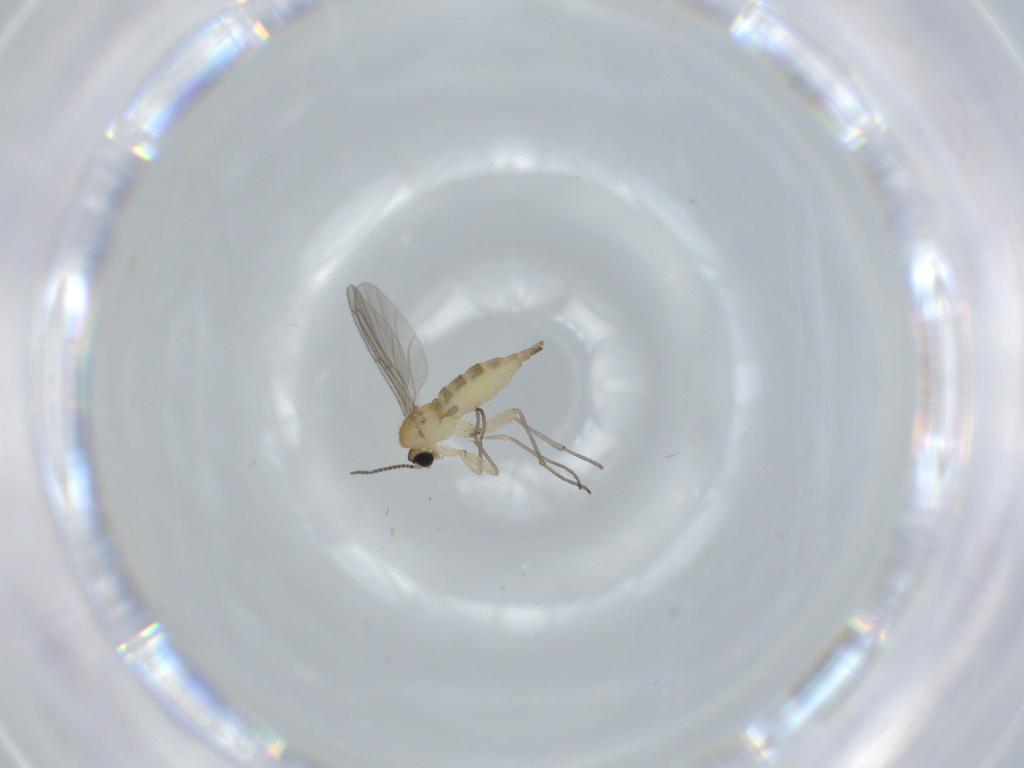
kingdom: Animalia
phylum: Arthropoda
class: Insecta
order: Diptera
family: Sciaridae
